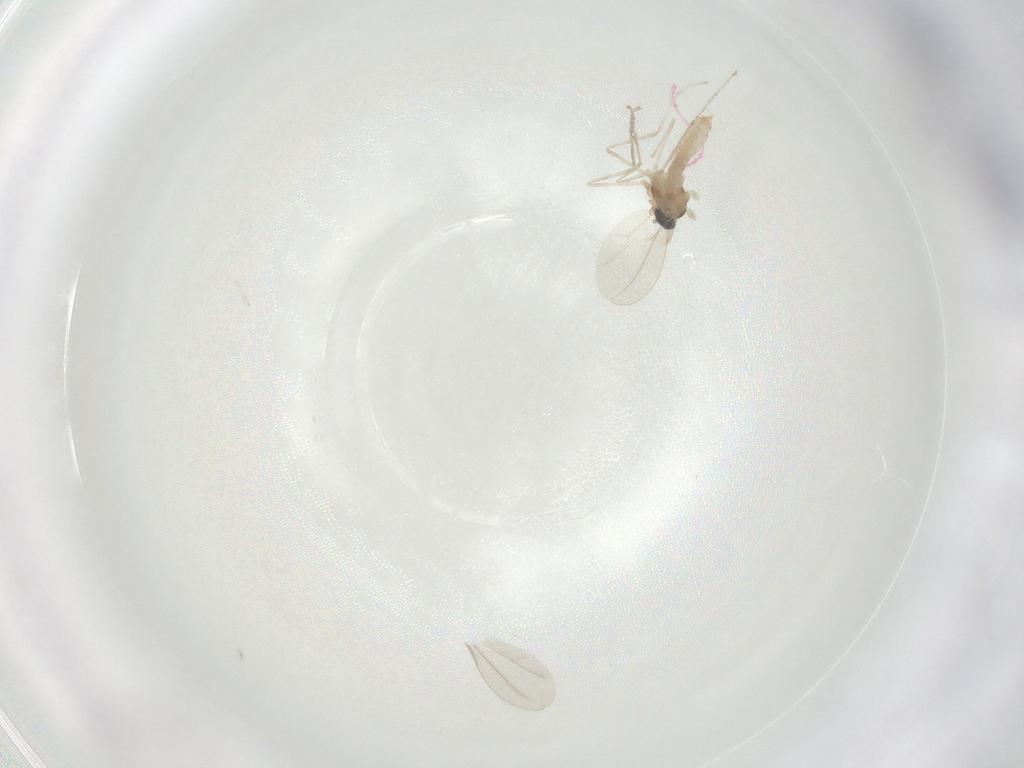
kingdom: Animalia
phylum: Arthropoda
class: Insecta
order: Diptera
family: Cecidomyiidae
